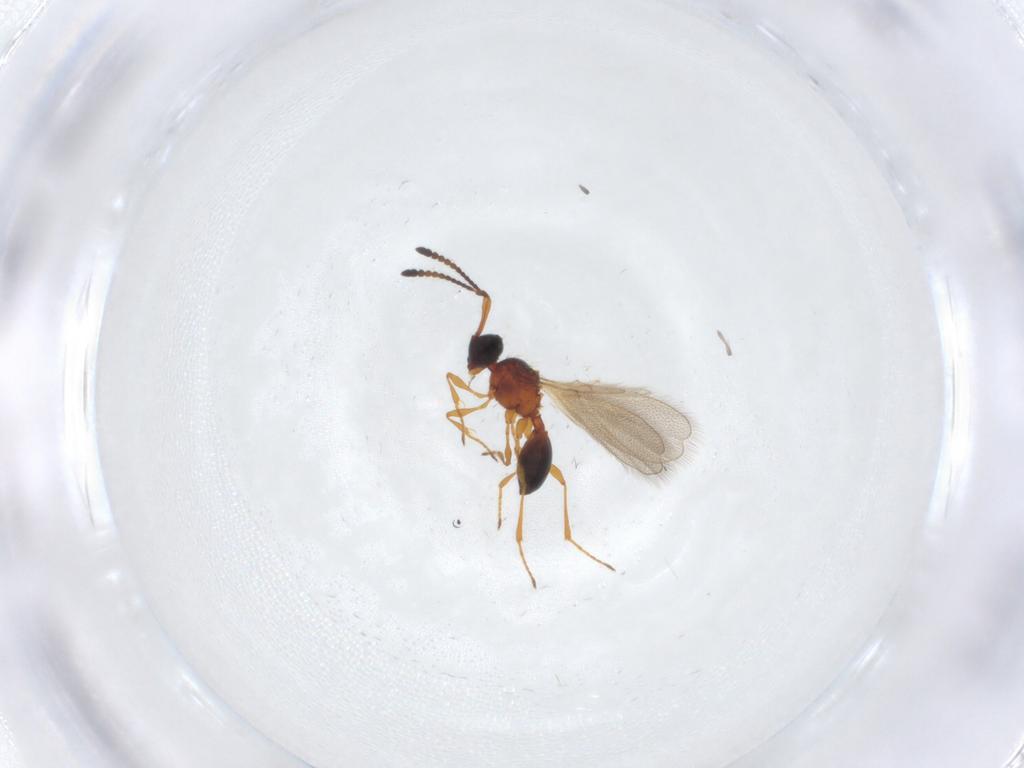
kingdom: Animalia
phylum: Arthropoda
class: Insecta
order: Hymenoptera
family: Diapriidae
